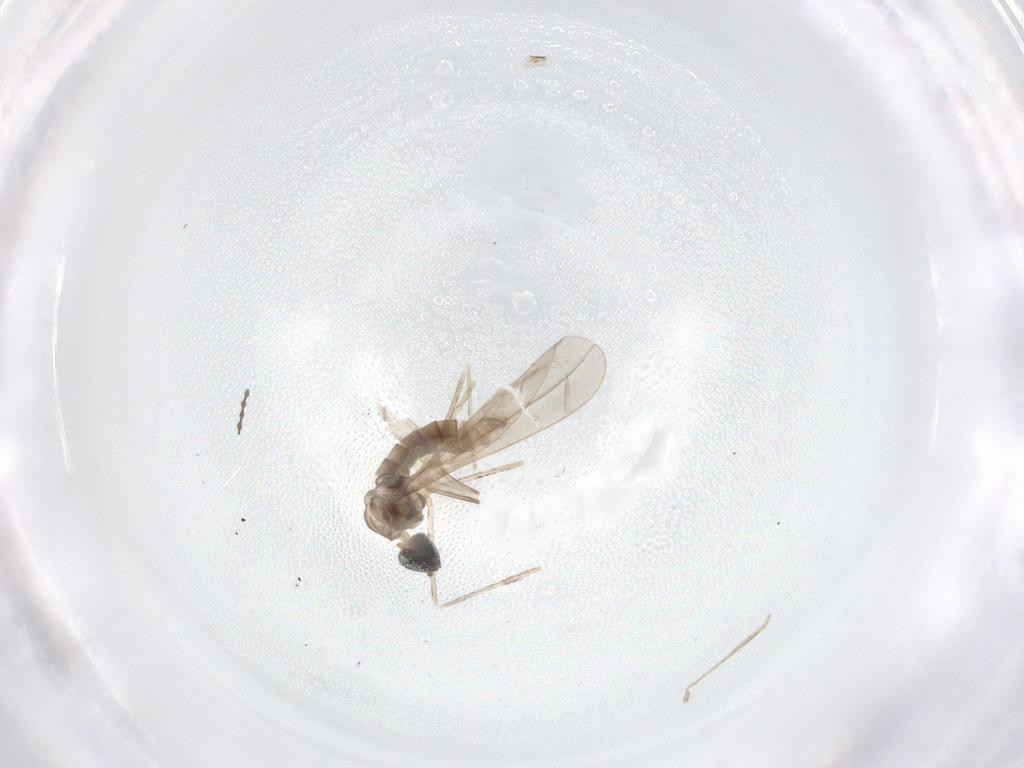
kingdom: Animalia
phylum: Arthropoda
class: Insecta
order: Diptera
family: Cecidomyiidae
